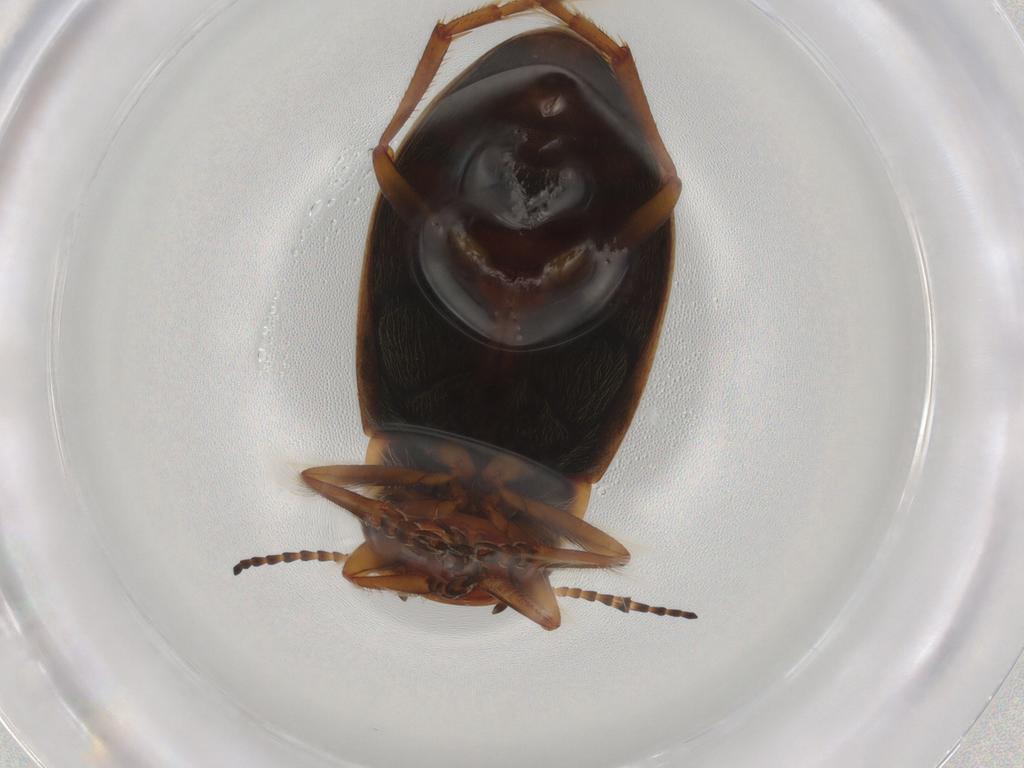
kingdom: Animalia
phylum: Arthropoda
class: Insecta
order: Coleoptera
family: Dytiscidae
